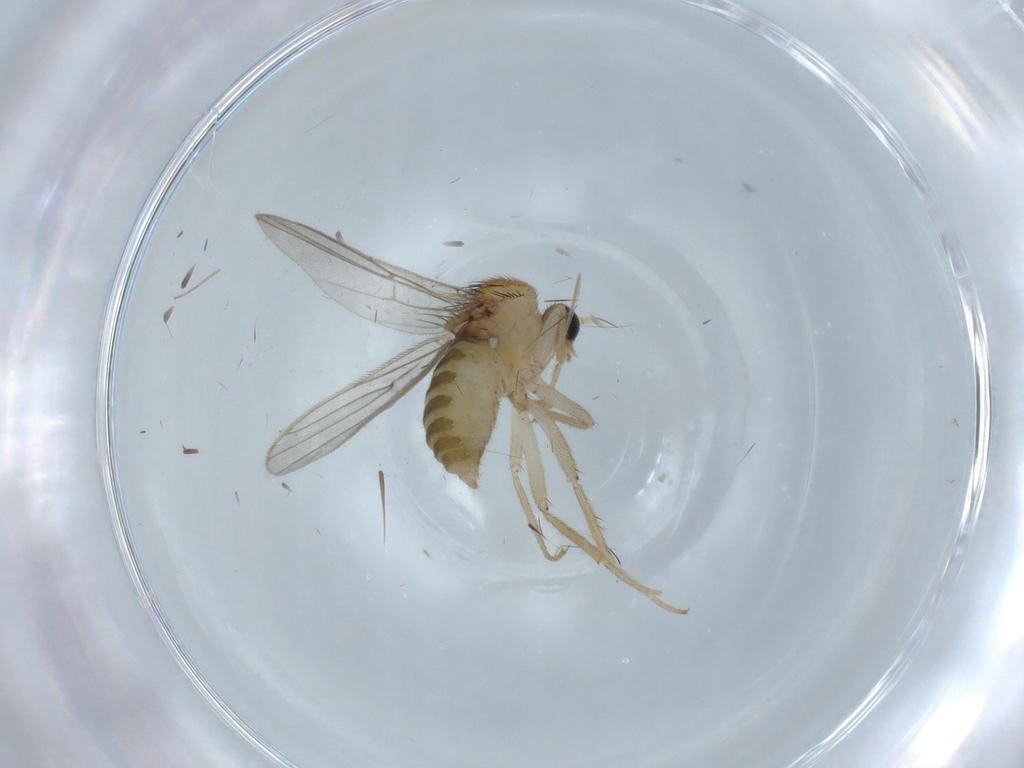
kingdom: Animalia
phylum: Arthropoda
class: Insecta
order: Diptera
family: Hybotidae
